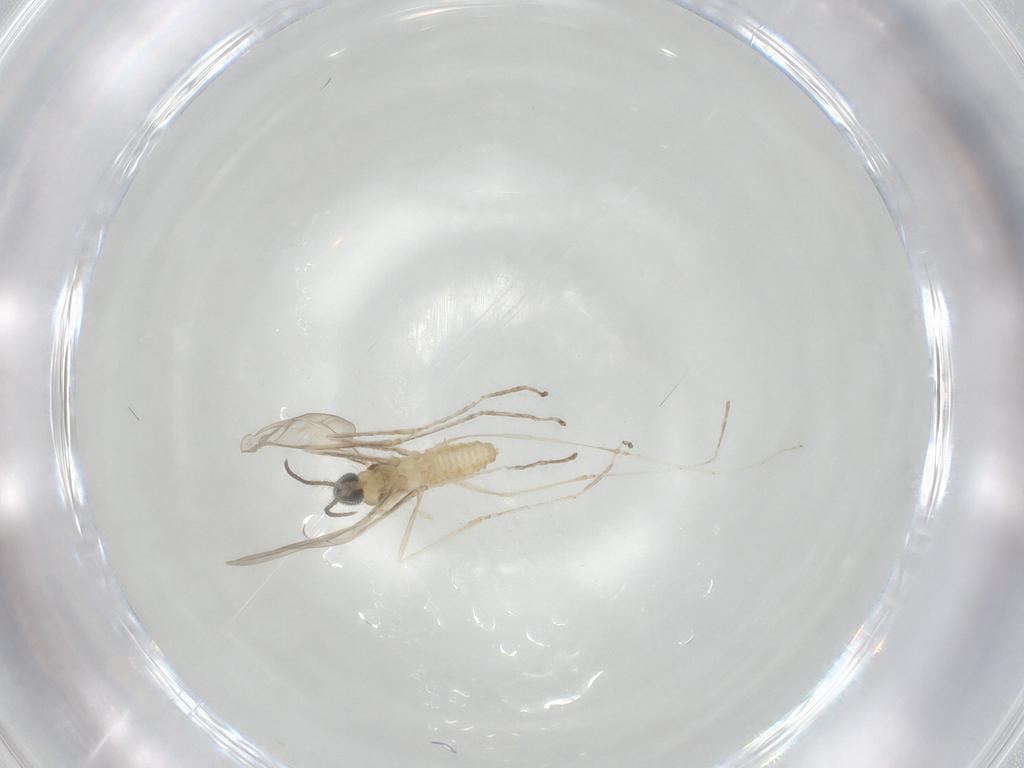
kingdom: Animalia
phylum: Arthropoda
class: Insecta
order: Diptera
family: Cecidomyiidae
